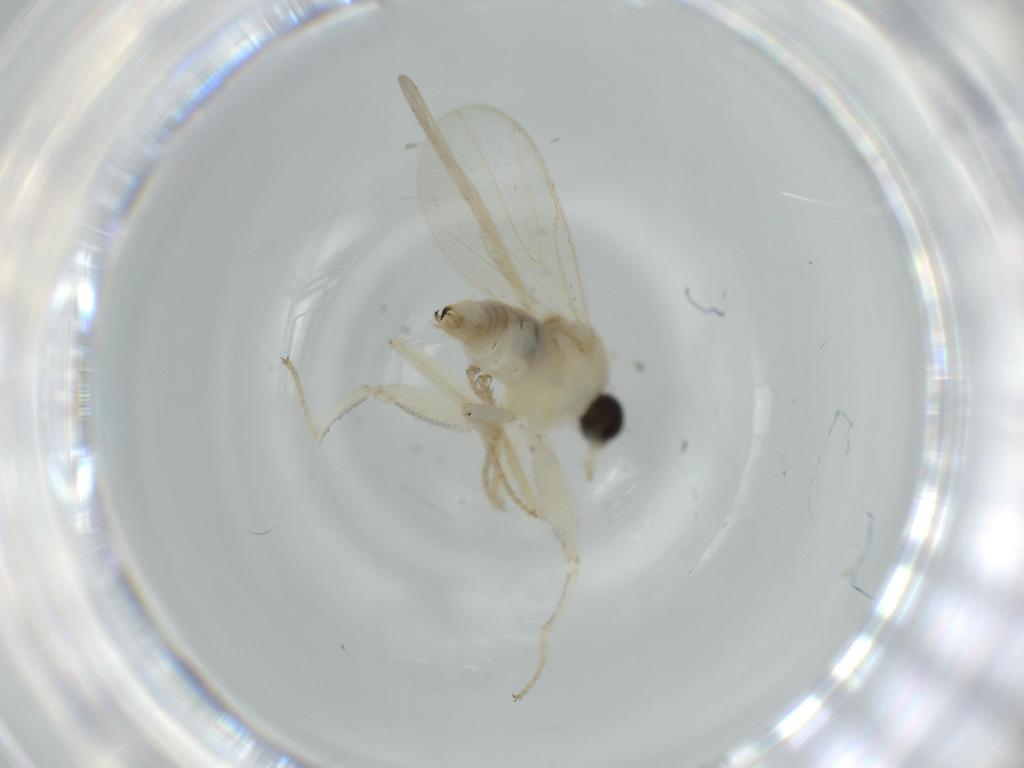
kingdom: Animalia
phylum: Arthropoda
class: Insecta
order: Diptera
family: Hybotidae
